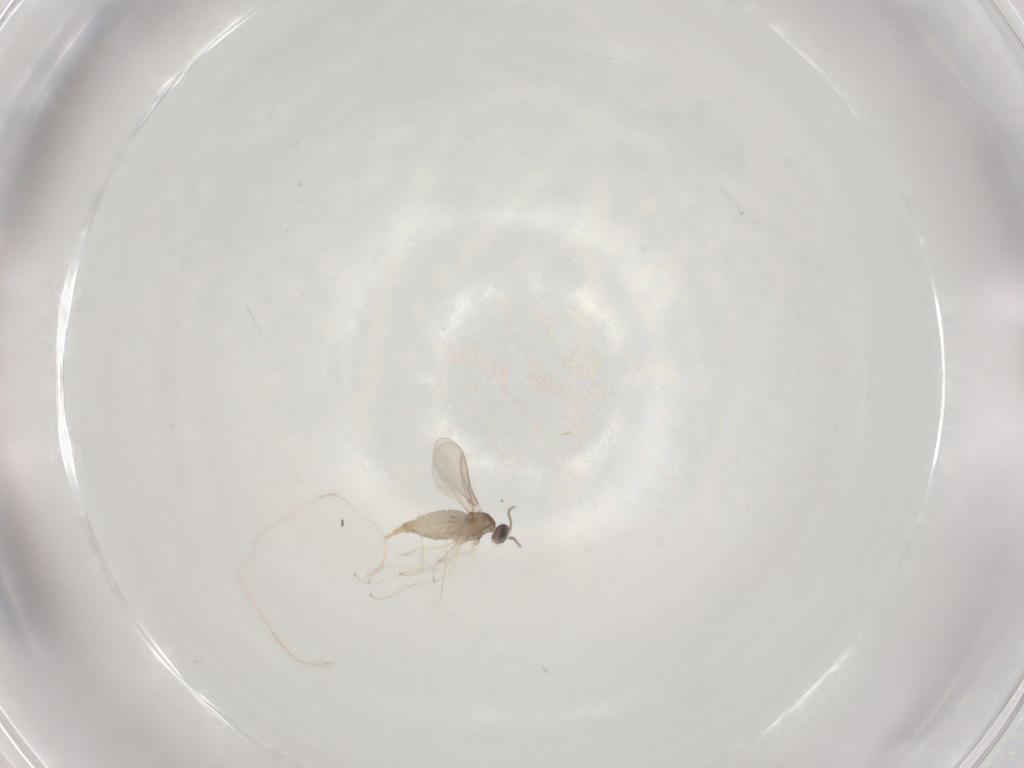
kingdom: Animalia
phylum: Arthropoda
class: Insecta
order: Diptera
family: Cecidomyiidae
